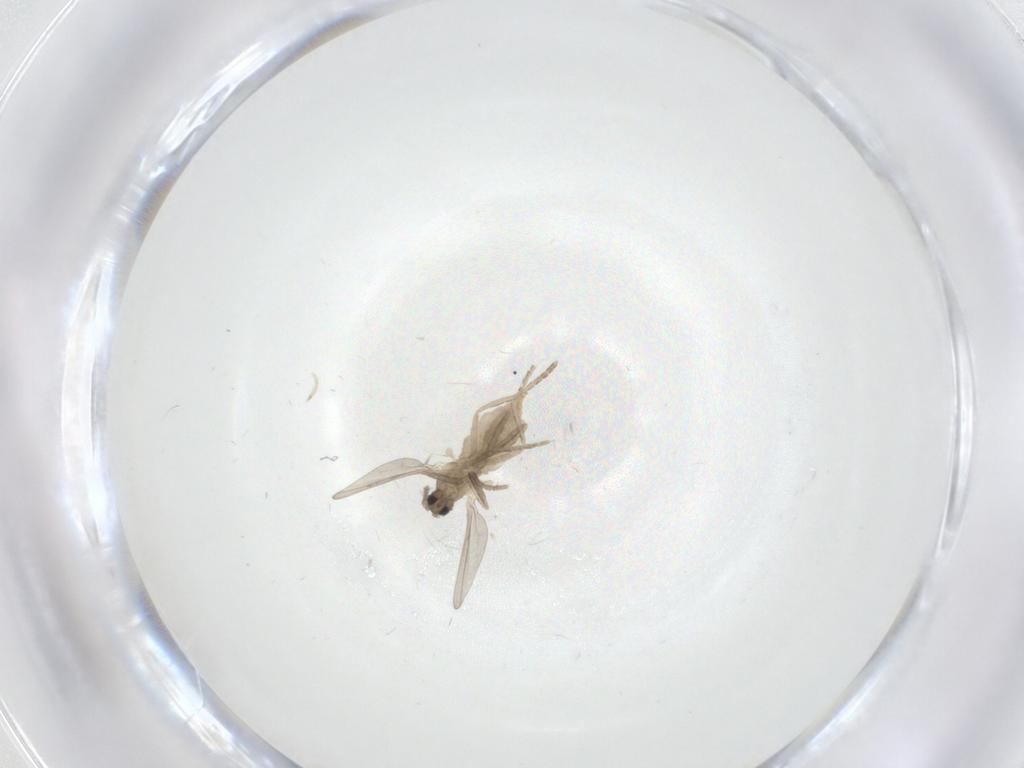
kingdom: Animalia
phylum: Arthropoda
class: Insecta
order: Diptera
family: Cecidomyiidae
